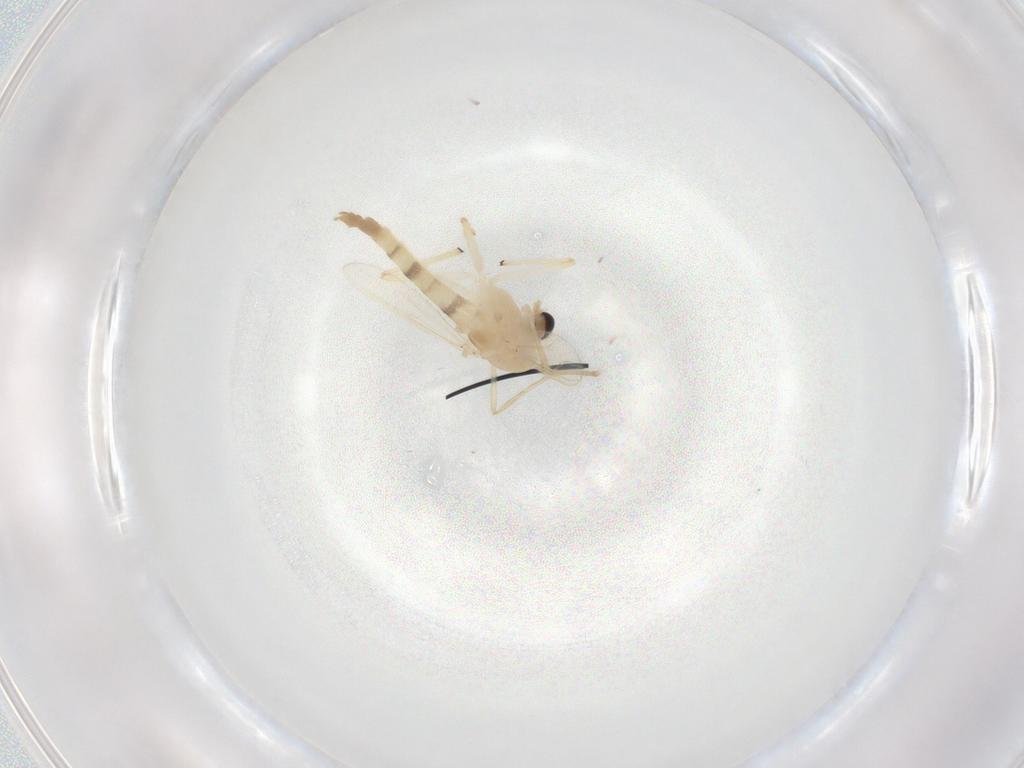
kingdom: Animalia
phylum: Arthropoda
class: Insecta
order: Diptera
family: Chironomidae
